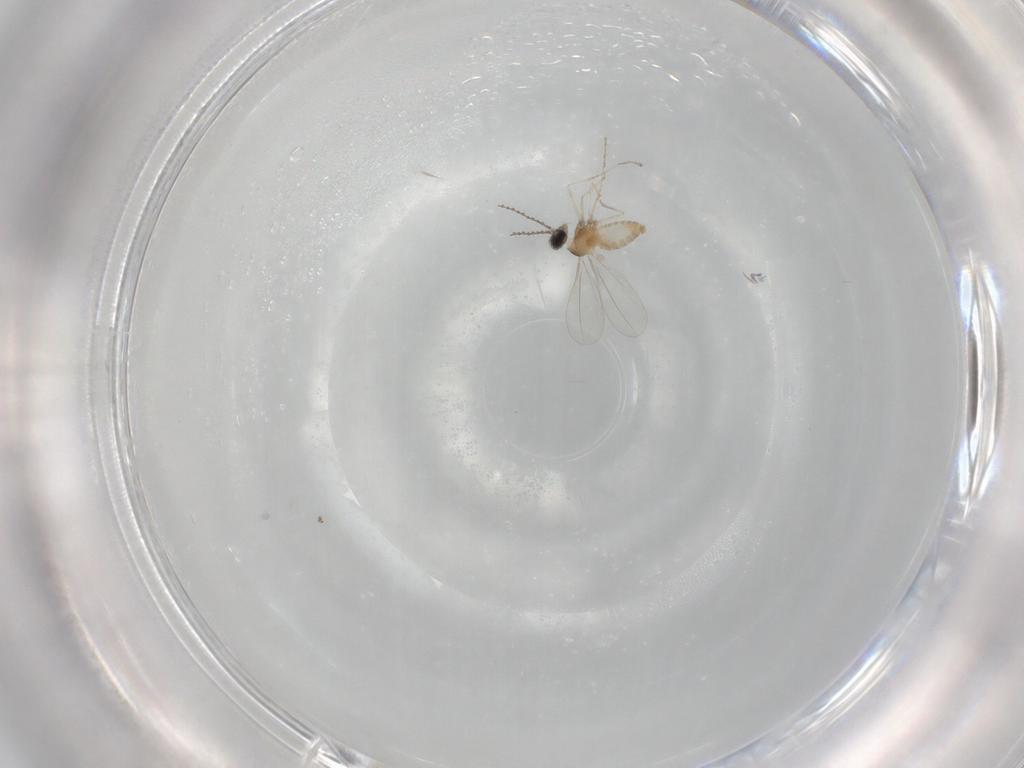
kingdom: Animalia
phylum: Arthropoda
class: Insecta
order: Diptera
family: Cecidomyiidae
